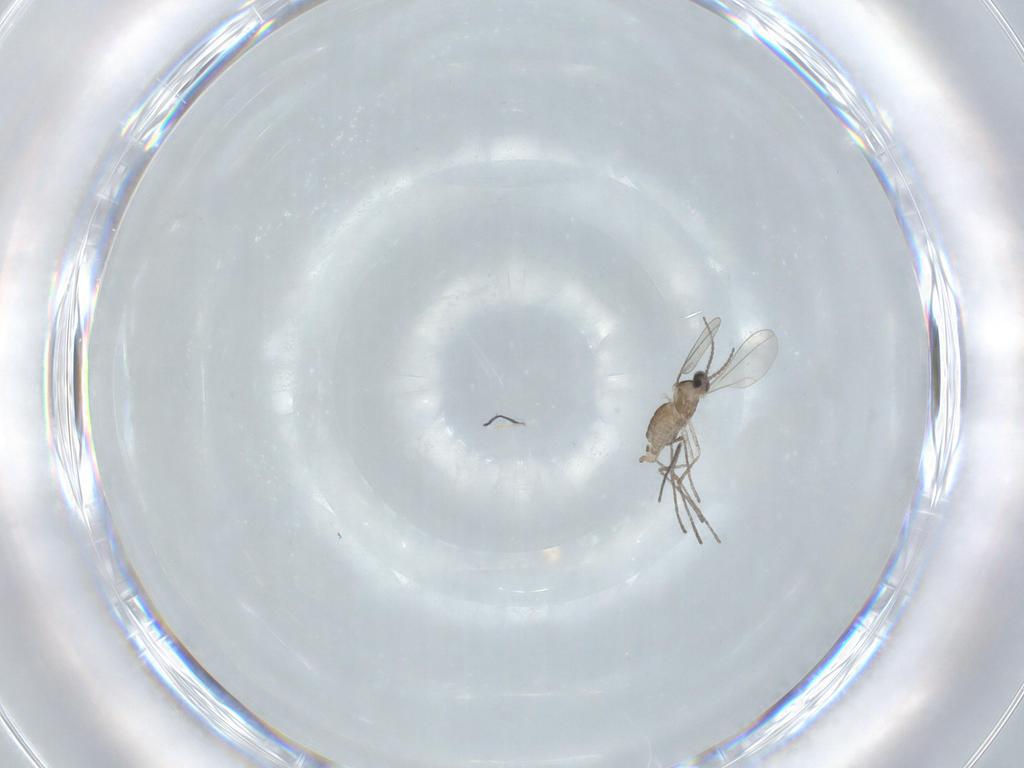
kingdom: Animalia
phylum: Arthropoda
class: Insecta
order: Diptera
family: Cecidomyiidae
